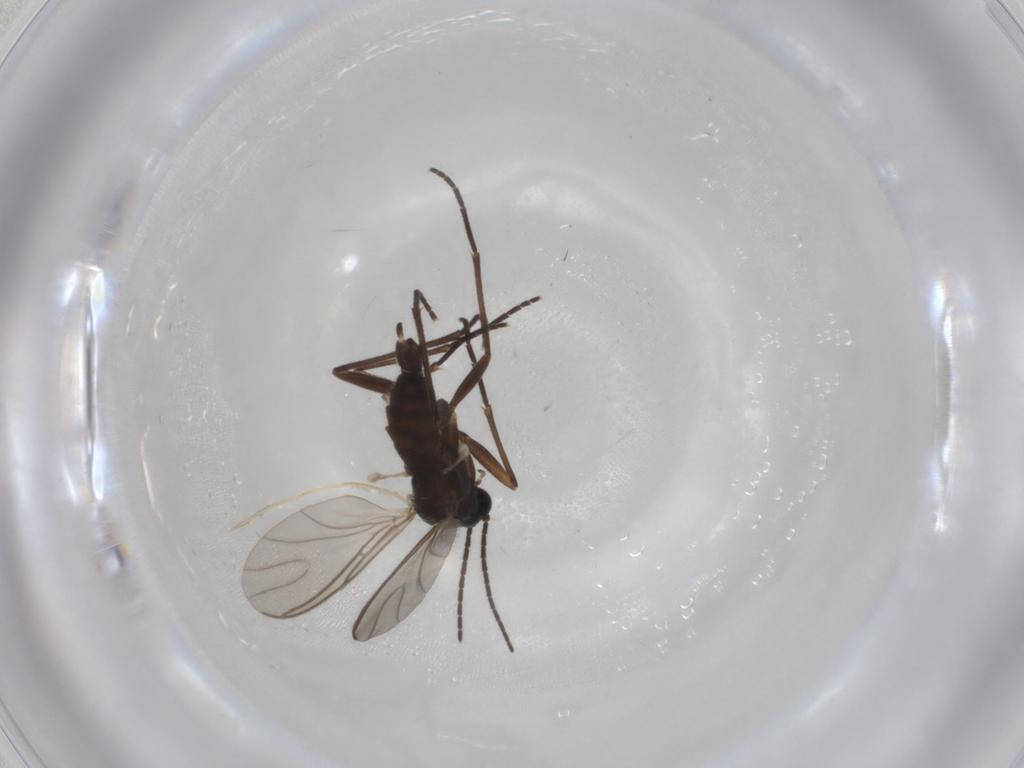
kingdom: Animalia
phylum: Arthropoda
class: Insecta
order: Diptera
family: Sciaridae
